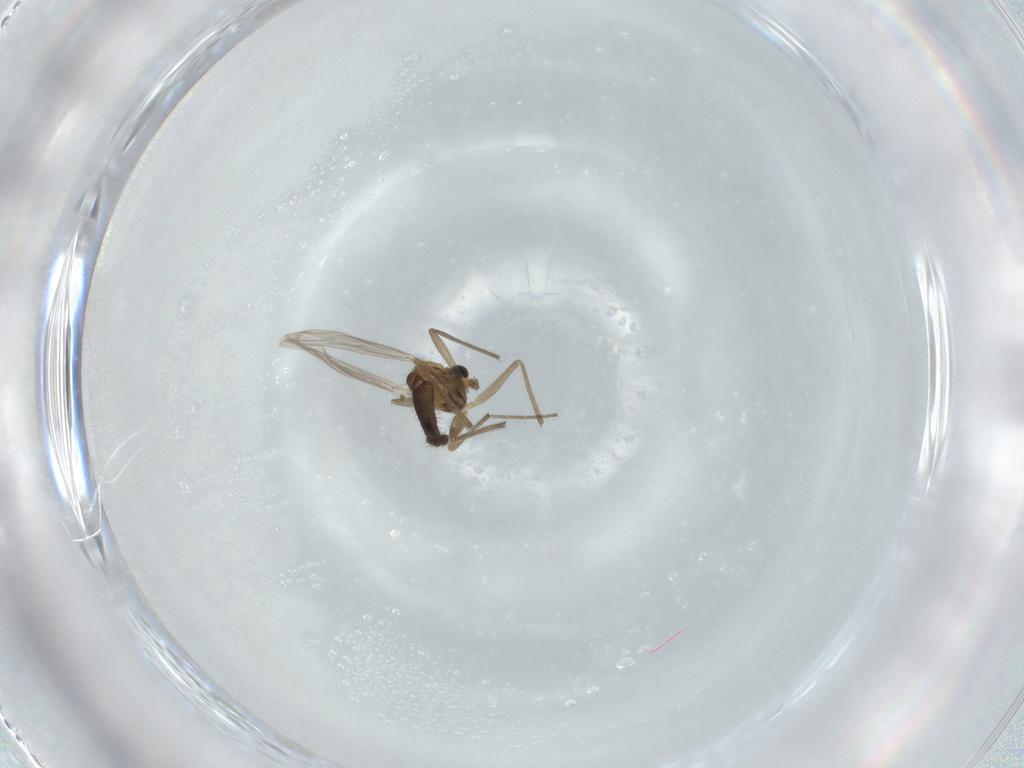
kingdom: Animalia
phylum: Arthropoda
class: Insecta
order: Diptera
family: Chironomidae
